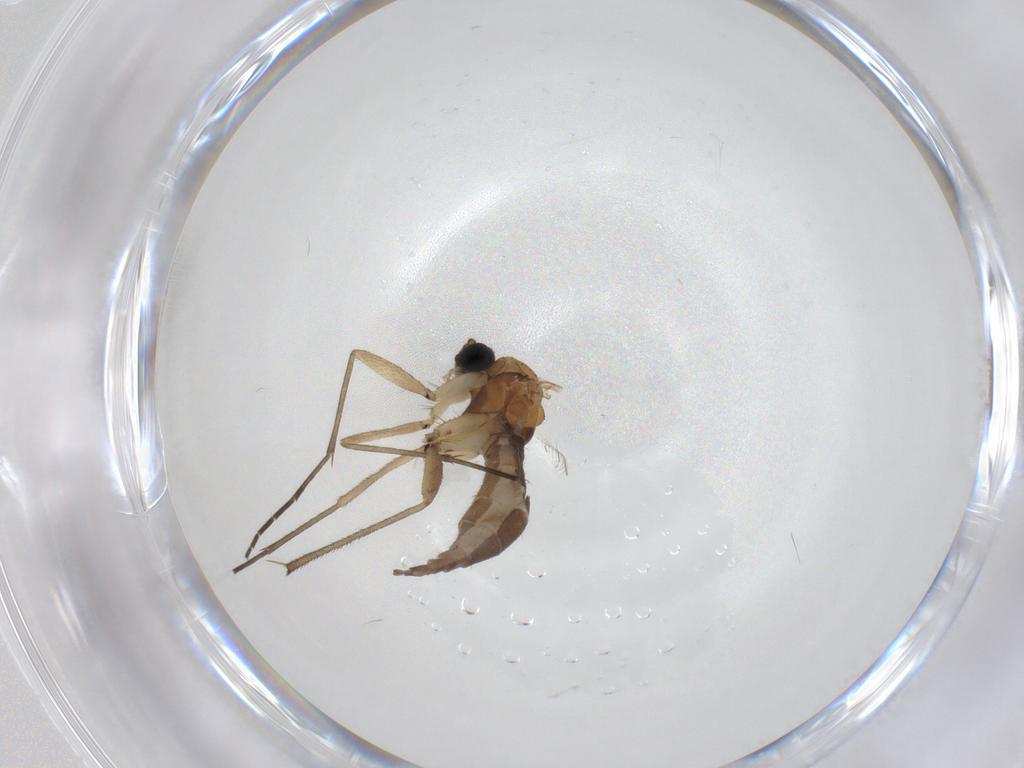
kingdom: Animalia
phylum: Arthropoda
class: Insecta
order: Diptera
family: Sciaridae
